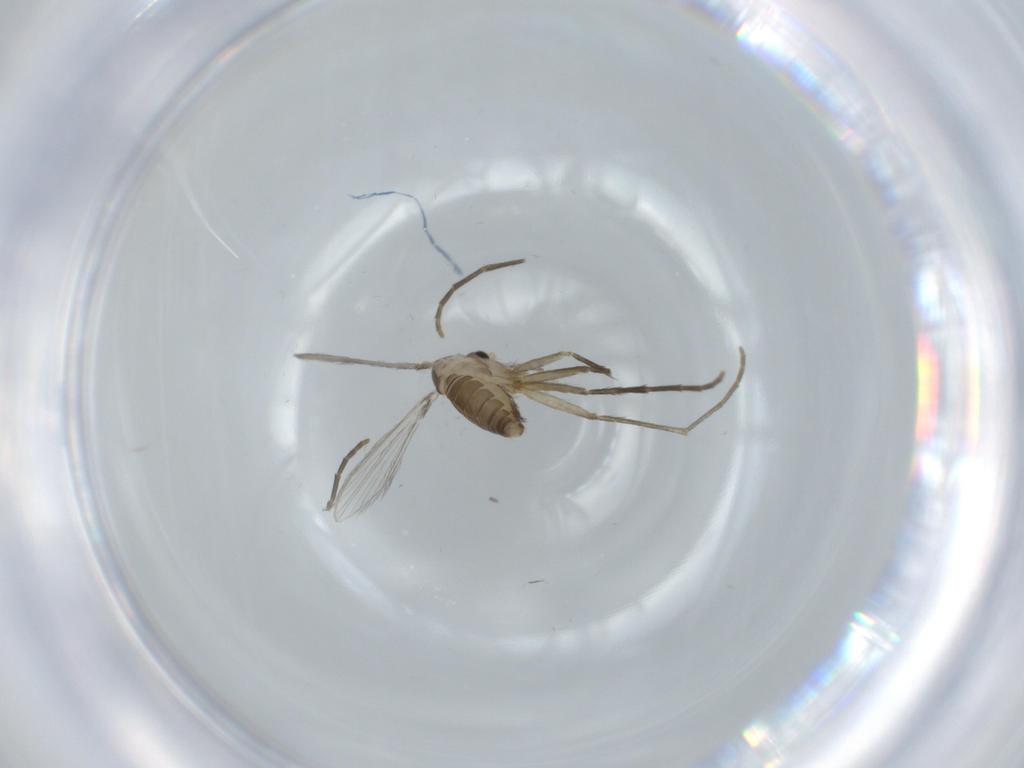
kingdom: Animalia
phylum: Arthropoda
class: Insecta
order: Diptera
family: Psychodidae
